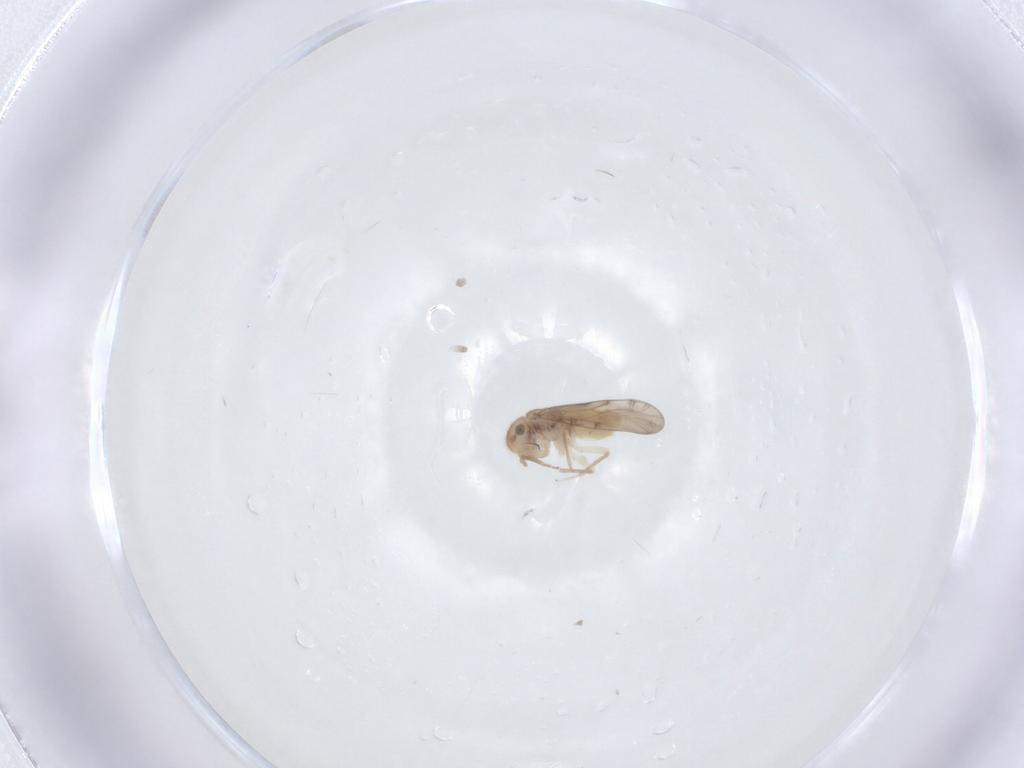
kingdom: Animalia
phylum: Arthropoda
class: Insecta
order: Psocodea
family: Ectopsocidae
